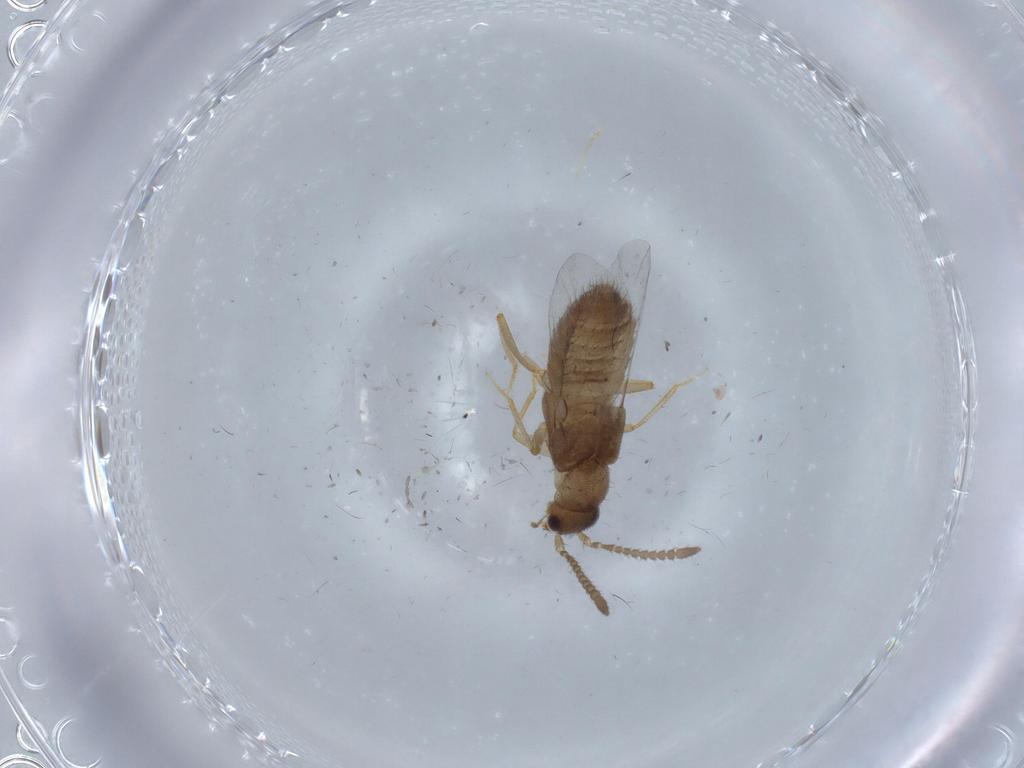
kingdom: Animalia
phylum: Arthropoda
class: Insecta
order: Coleoptera
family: Staphylinidae
